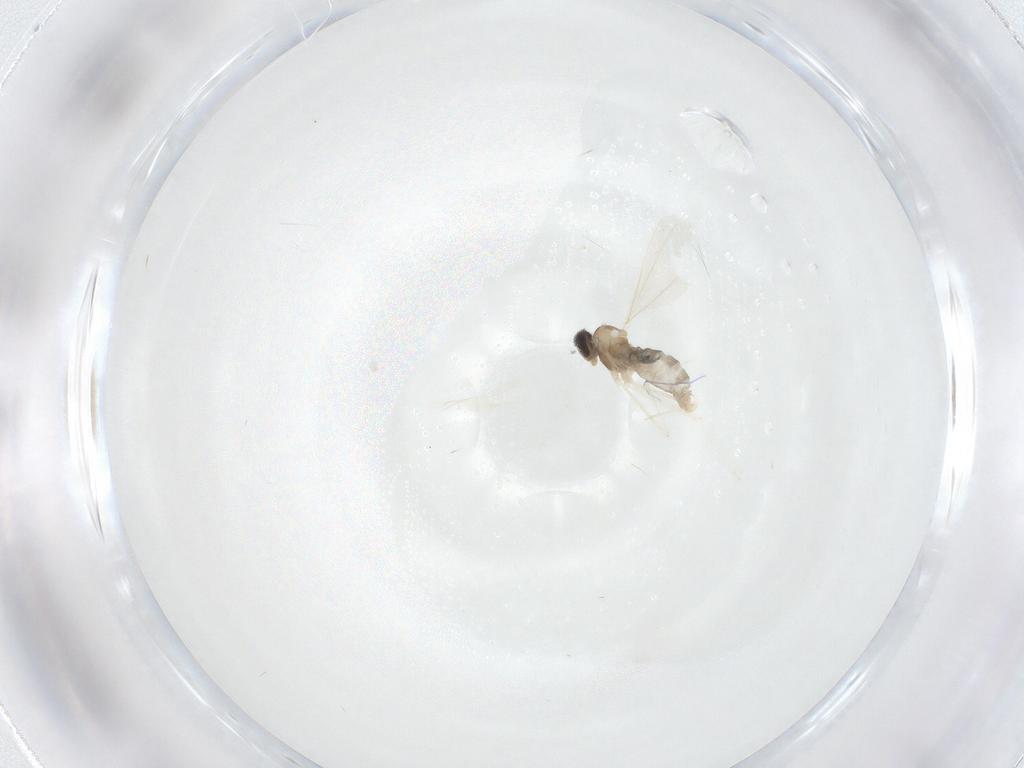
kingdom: Animalia
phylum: Arthropoda
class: Insecta
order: Diptera
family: Cecidomyiidae
